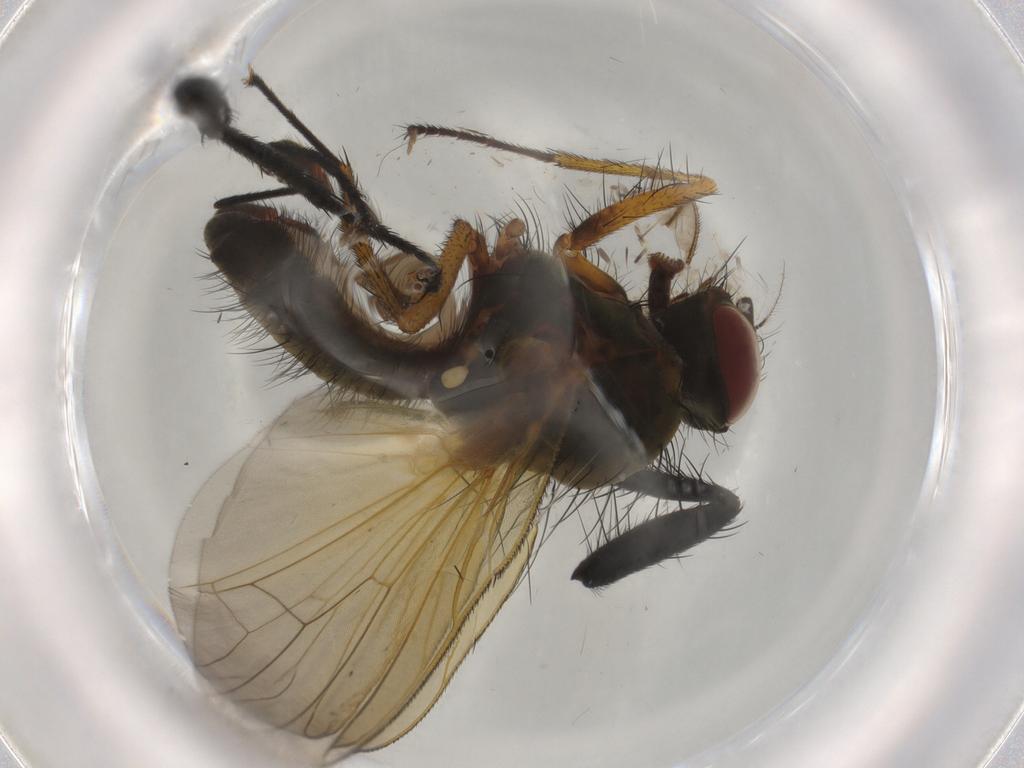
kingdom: Animalia
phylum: Arthropoda
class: Insecta
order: Diptera
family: Anthomyiidae
